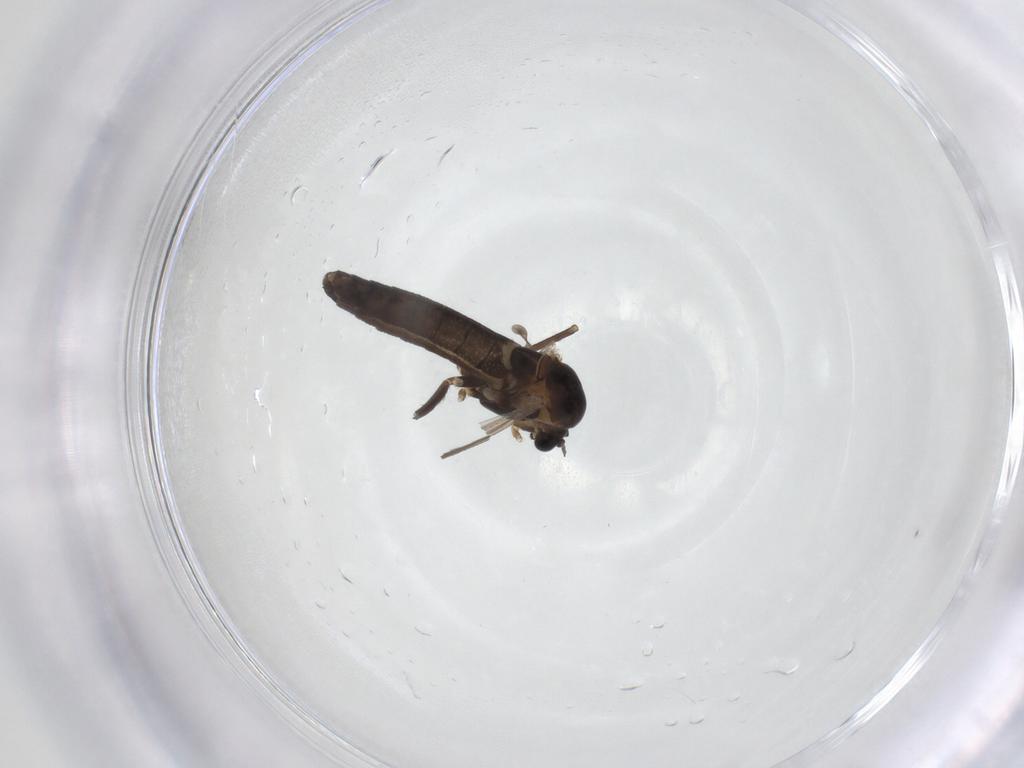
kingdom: Animalia
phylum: Arthropoda
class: Insecta
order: Diptera
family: Chironomidae
